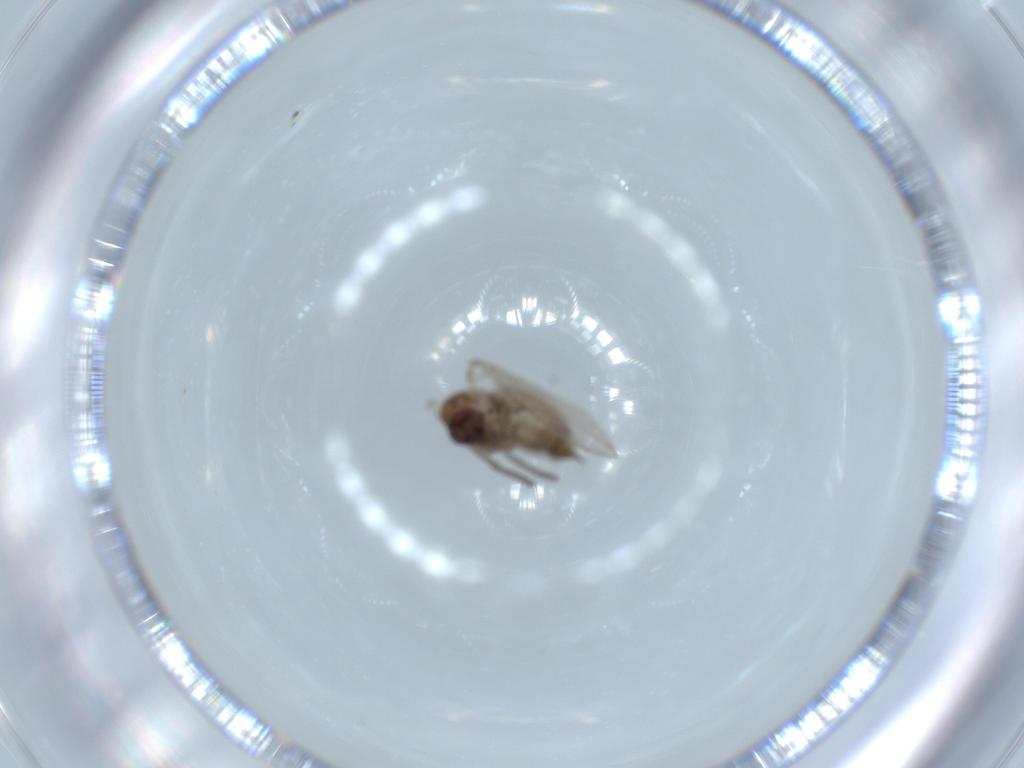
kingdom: Animalia
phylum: Arthropoda
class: Insecta
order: Diptera
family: Psychodidae
